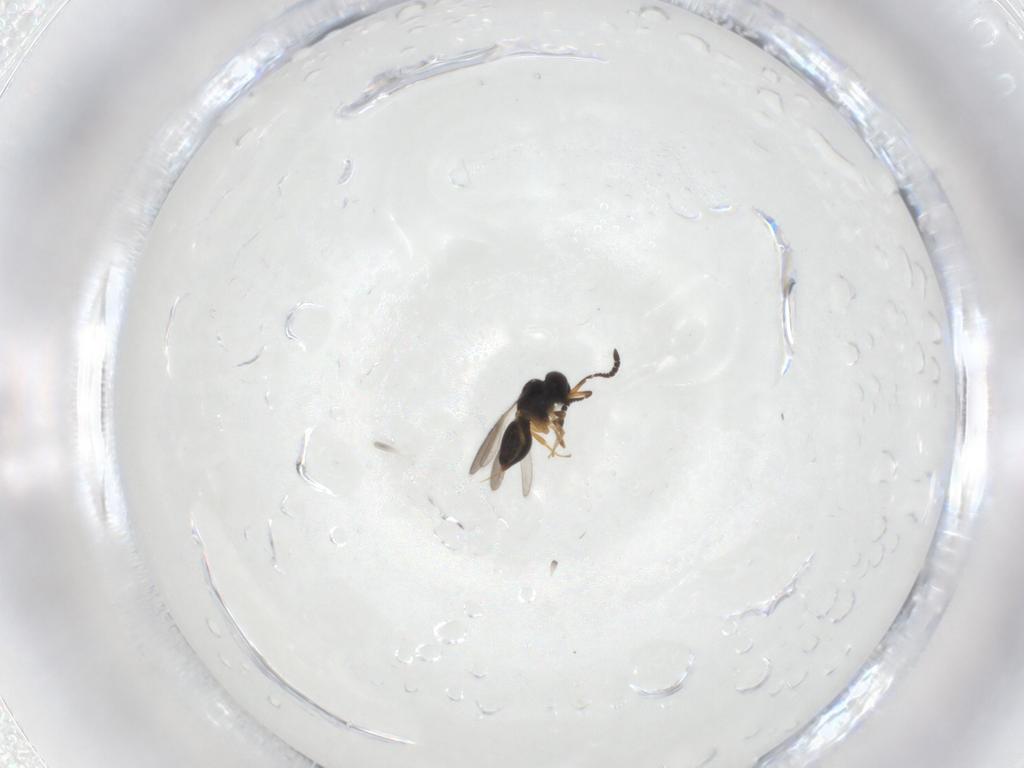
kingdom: Animalia
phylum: Arthropoda
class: Insecta
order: Hymenoptera
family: Ceraphronidae
